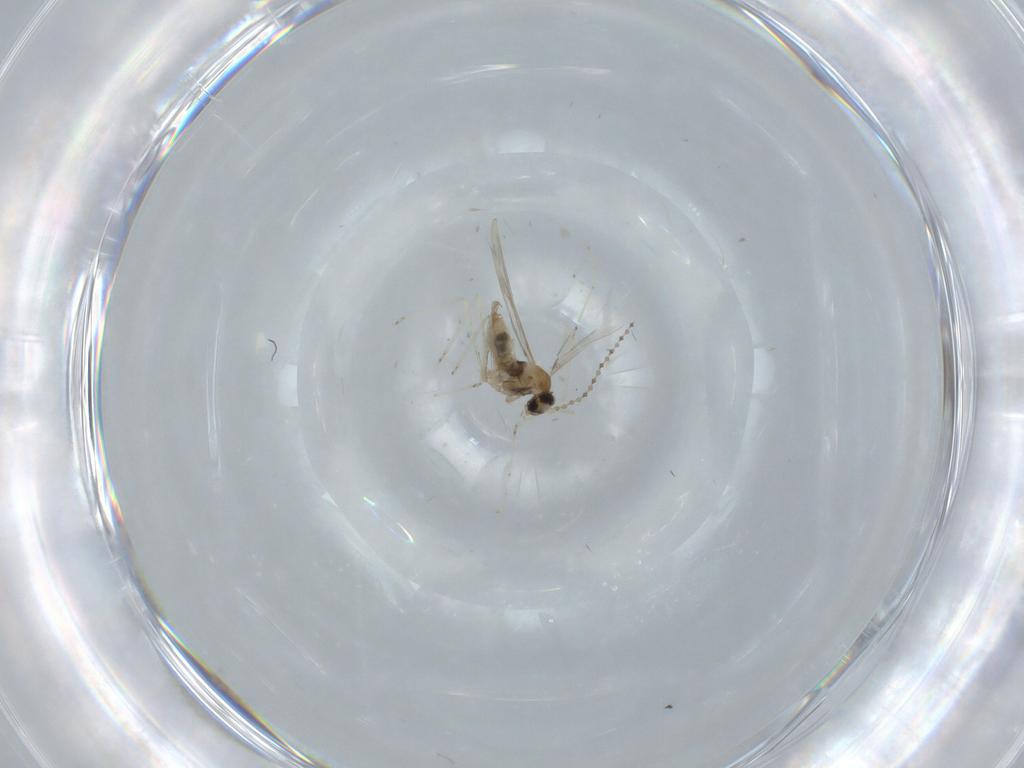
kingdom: Animalia
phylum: Arthropoda
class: Insecta
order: Diptera
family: Cecidomyiidae
